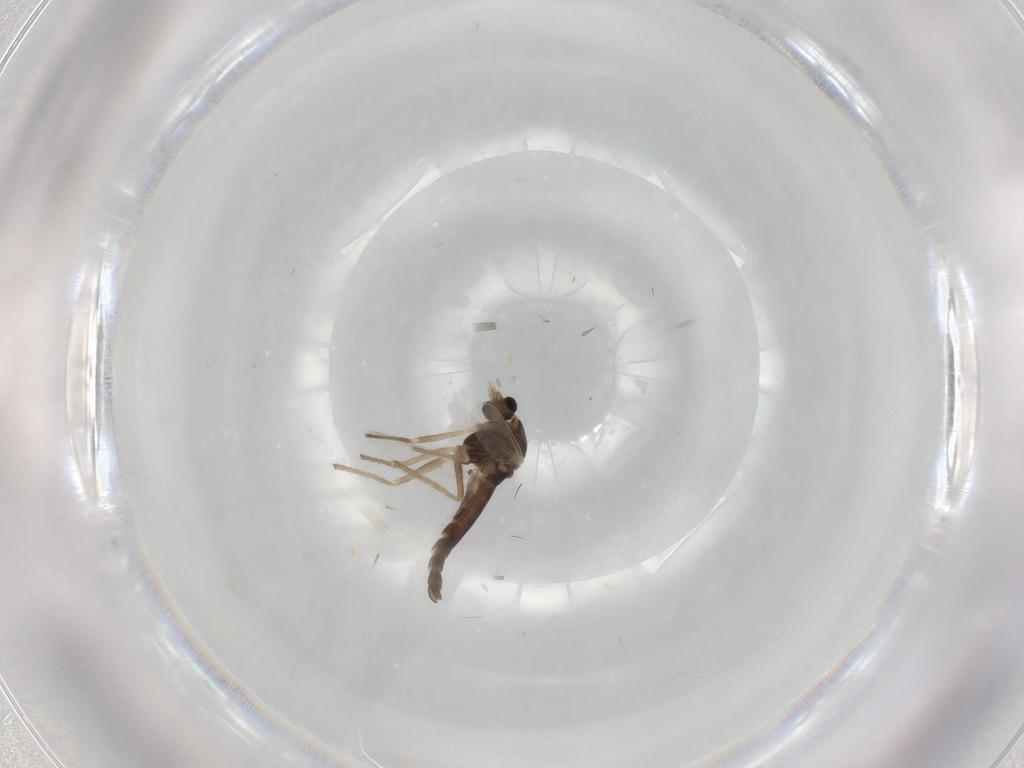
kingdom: Animalia
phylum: Arthropoda
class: Insecta
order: Diptera
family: Chironomidae
